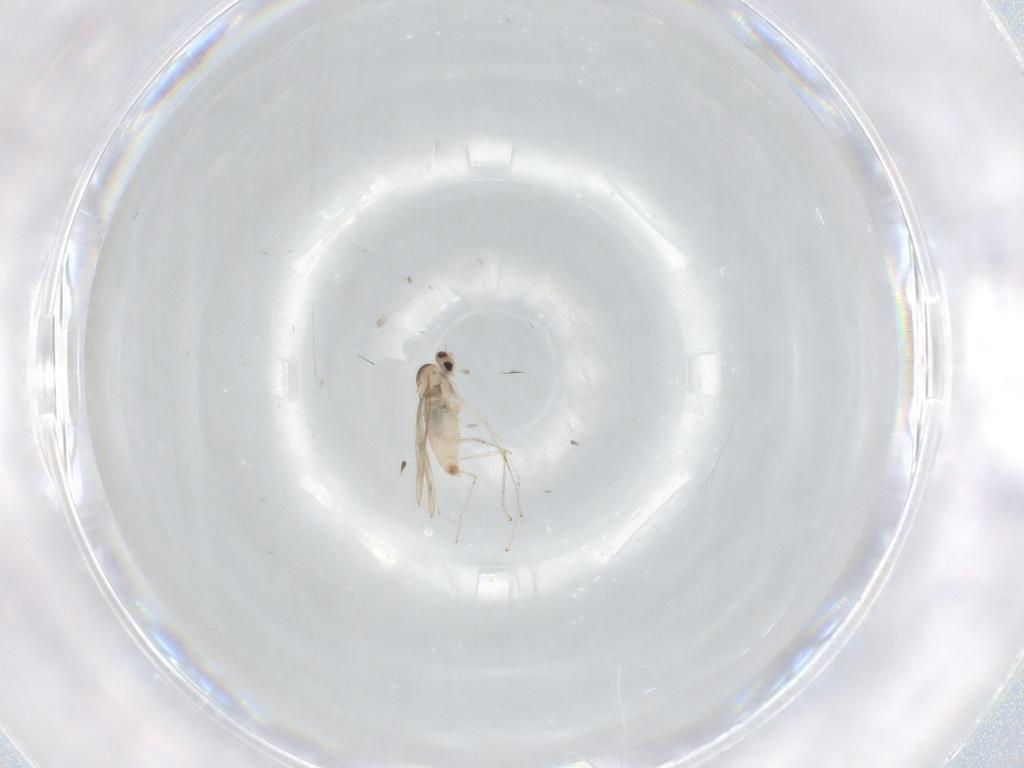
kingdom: Animalia
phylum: Arthropoda
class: Insecta
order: Diptera
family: Cecidomyiidae
